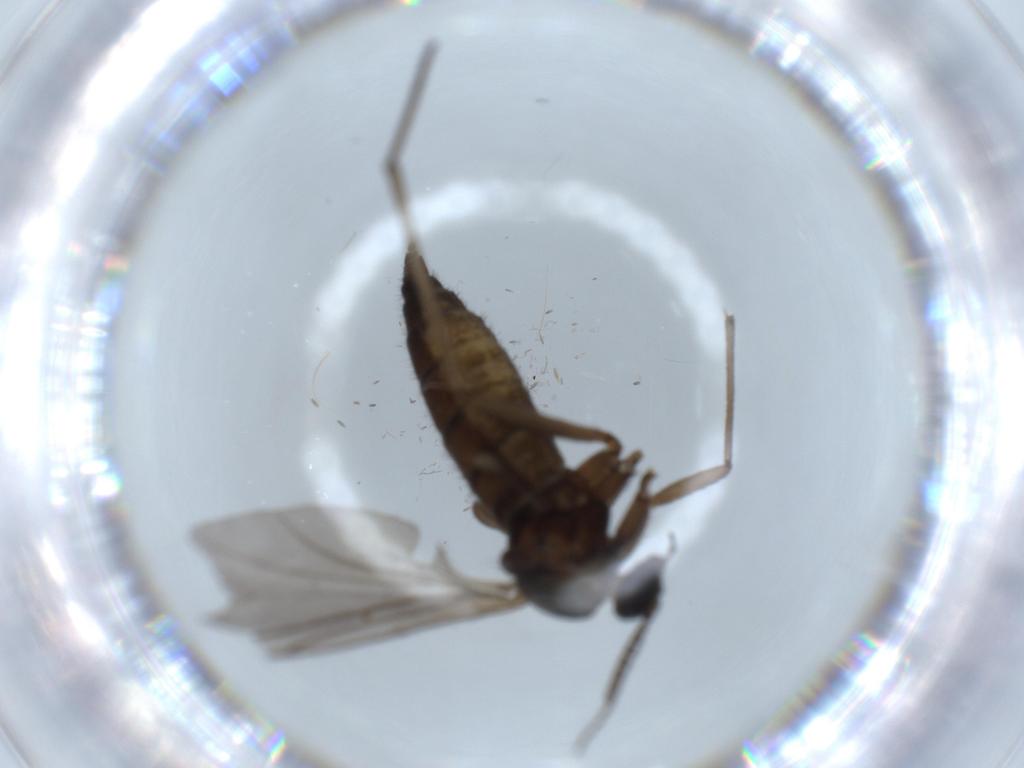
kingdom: Animalia
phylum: Arthropoda
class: Insecta
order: Diptera
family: Sciaridae
